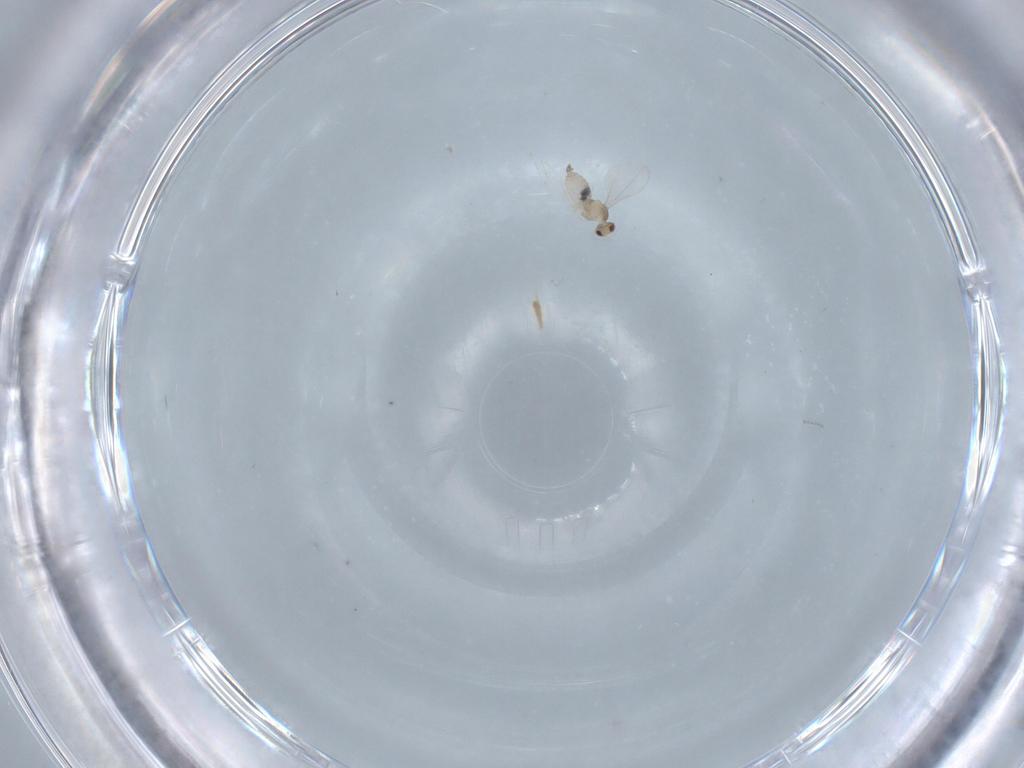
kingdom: Animalia
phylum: Arthropoda
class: Insecta
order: Diptera
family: Cecidomyiidae
